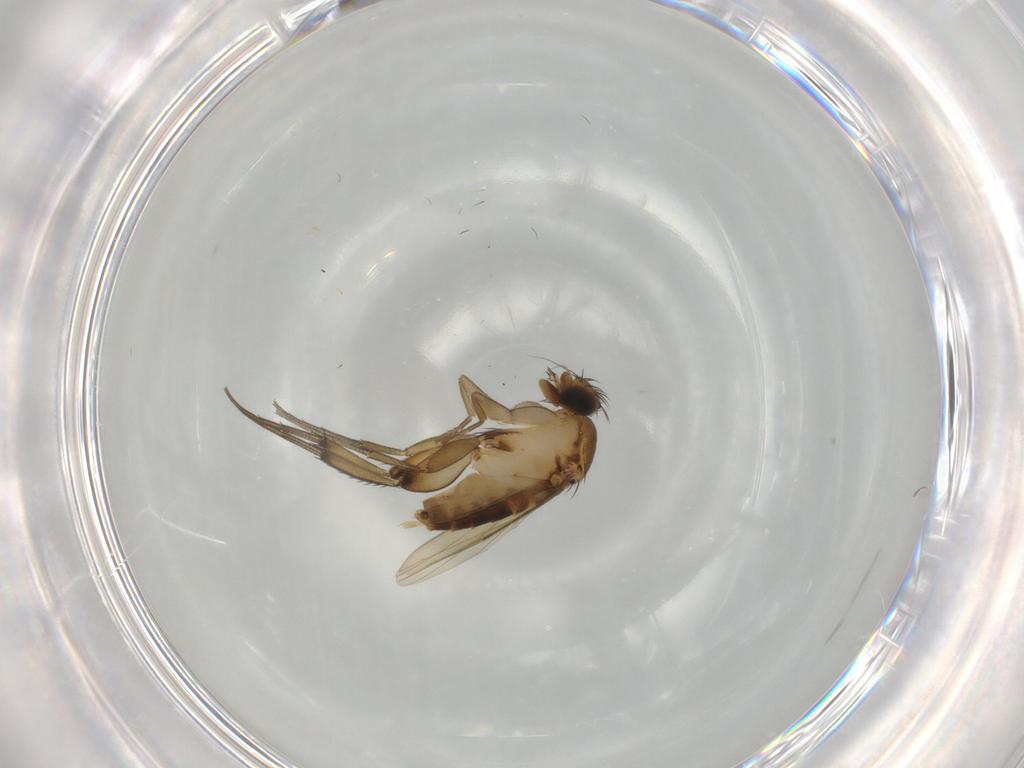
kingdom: Animalia
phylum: Arthropoda
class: Insecta
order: Diptera
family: Phoridae
